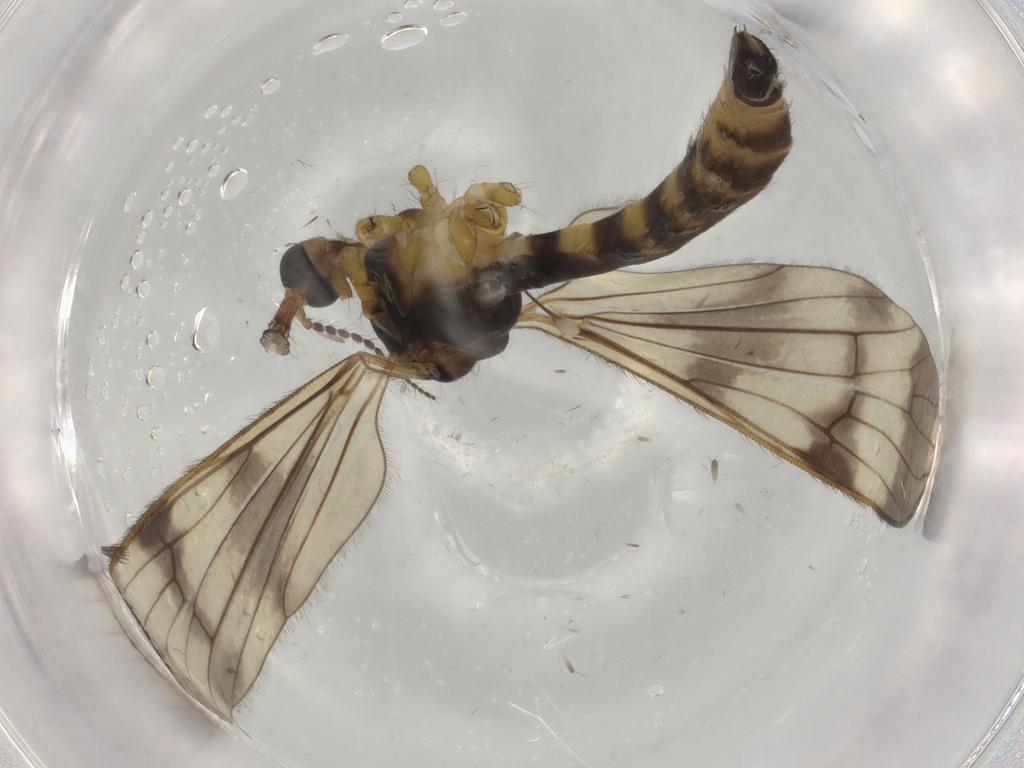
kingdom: Animalia
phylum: Arthropoda
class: Insecta
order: Diptera
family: Limoniidae
